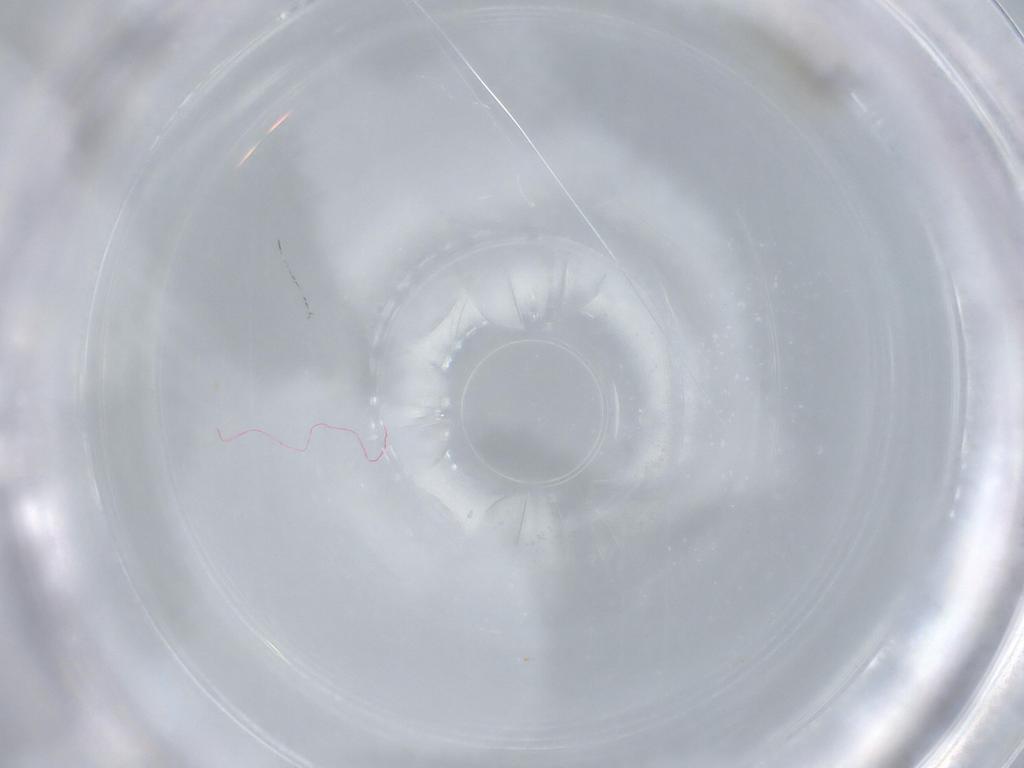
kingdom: Animalia
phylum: Arthropoda
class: Insecta
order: Diptera
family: Cecidomyiidae
